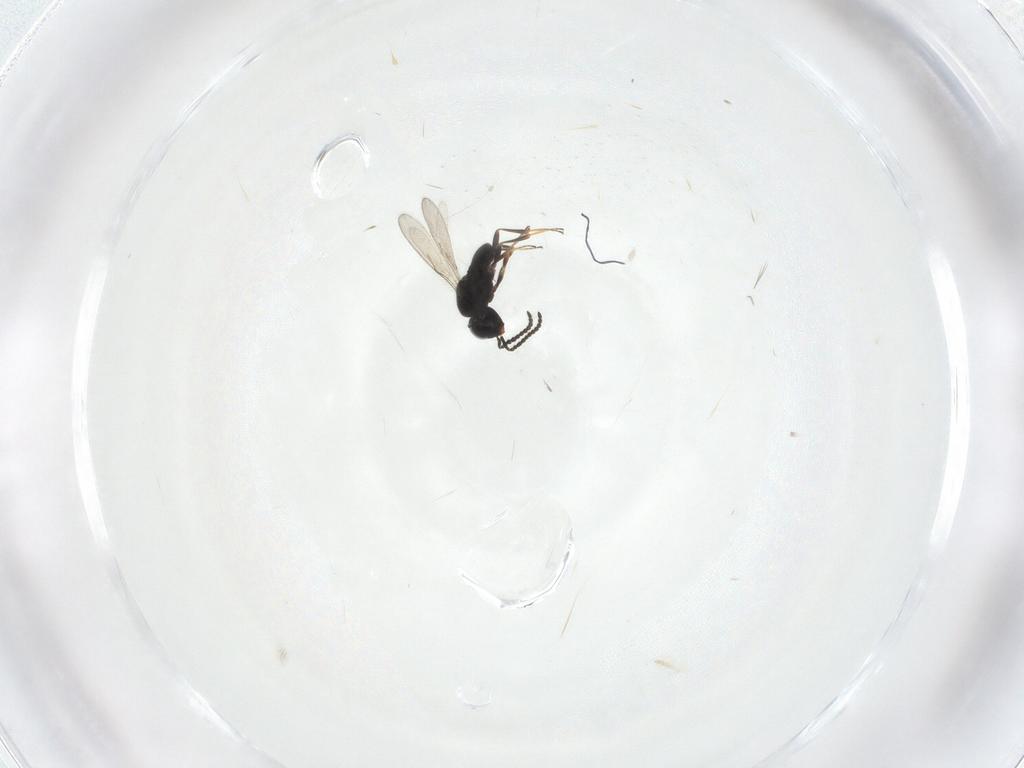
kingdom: Animalia
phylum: Arthropoda
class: Insecta
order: Hymenoptera
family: Scelionidae
